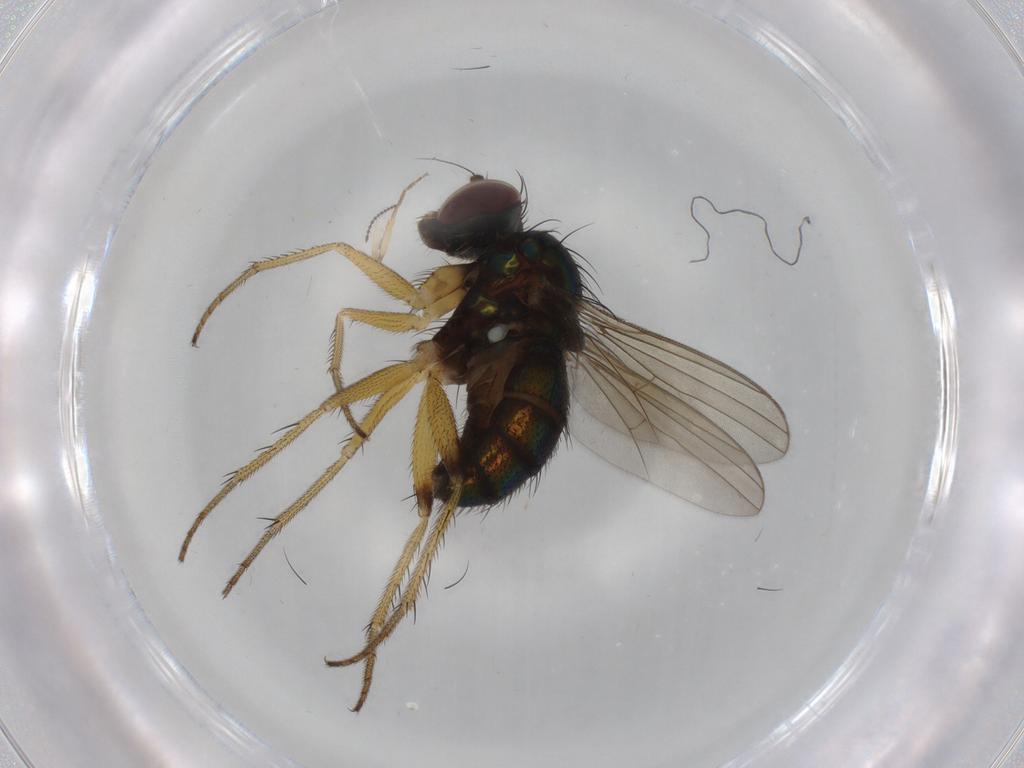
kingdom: Animalia
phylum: Arthropoda
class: Insecta
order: Diptera
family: Dolichopodidae
